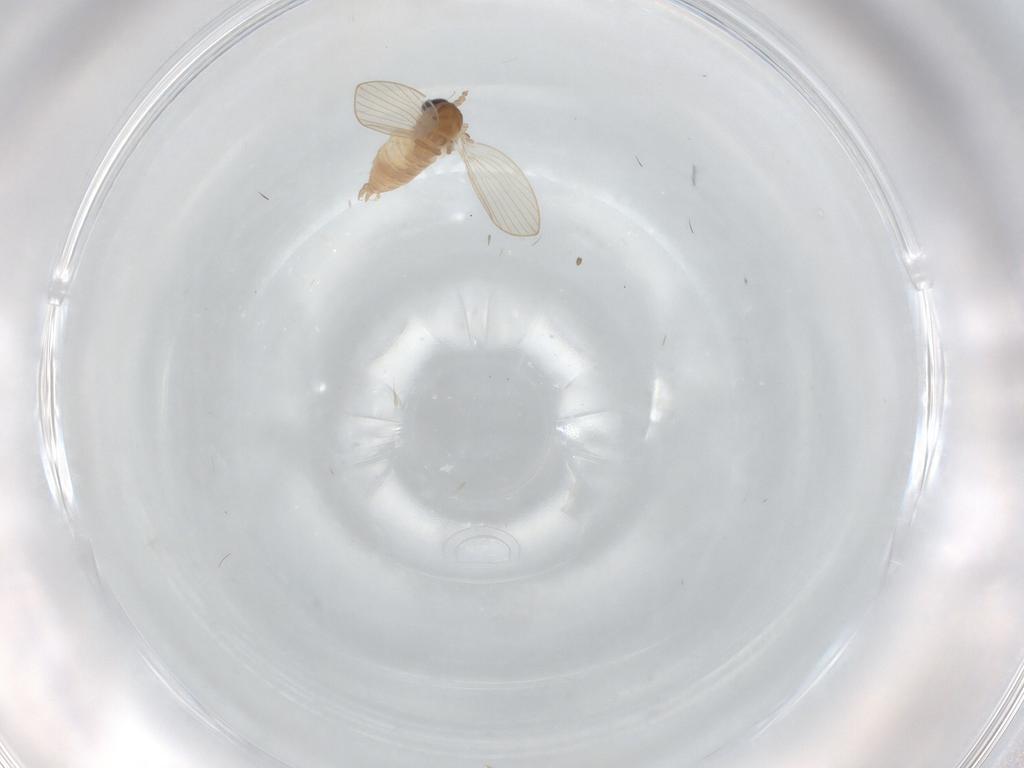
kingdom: Animalia
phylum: Arthropoda
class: Insecta
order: Diptera
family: Psychodidae
